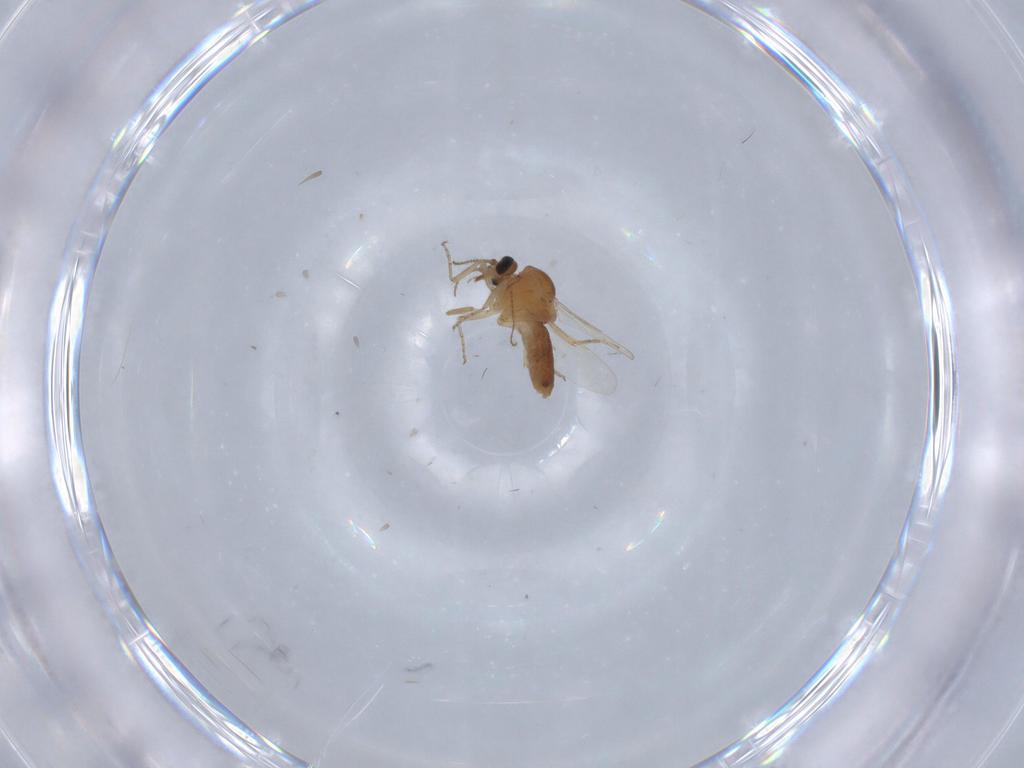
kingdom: Animalia
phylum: Arthropoda
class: Insecta
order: Diptera
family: Ceratopogonidae
